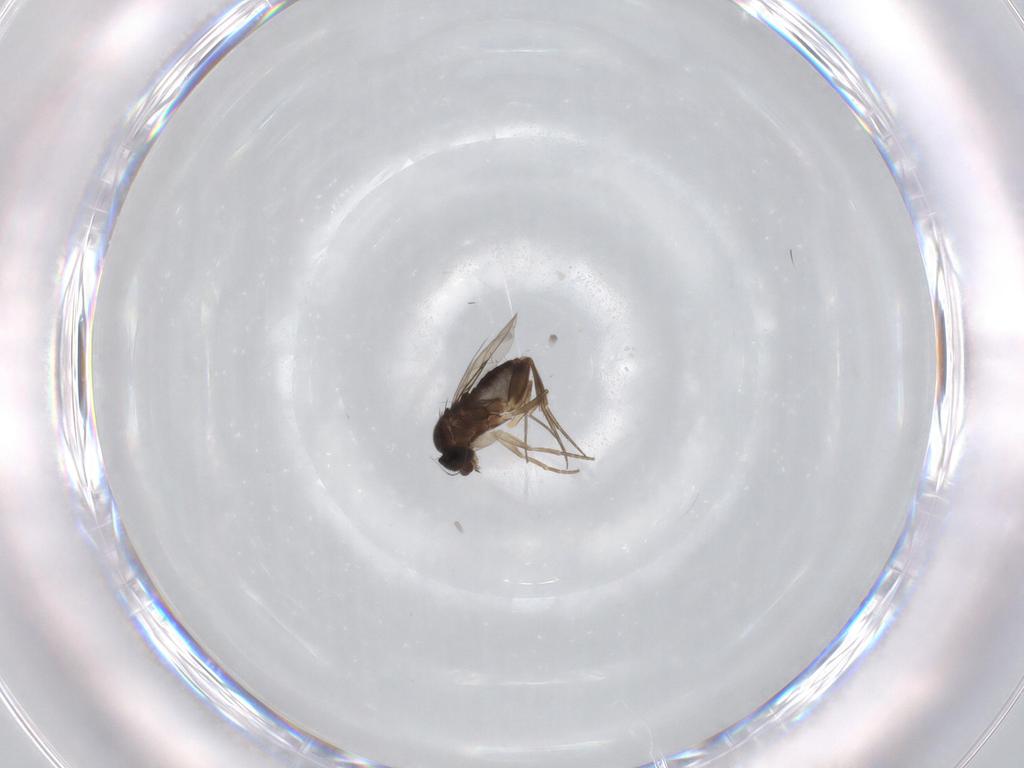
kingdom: Animalia
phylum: Arthropoda
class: Insecta
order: Diptera
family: Phoridae
